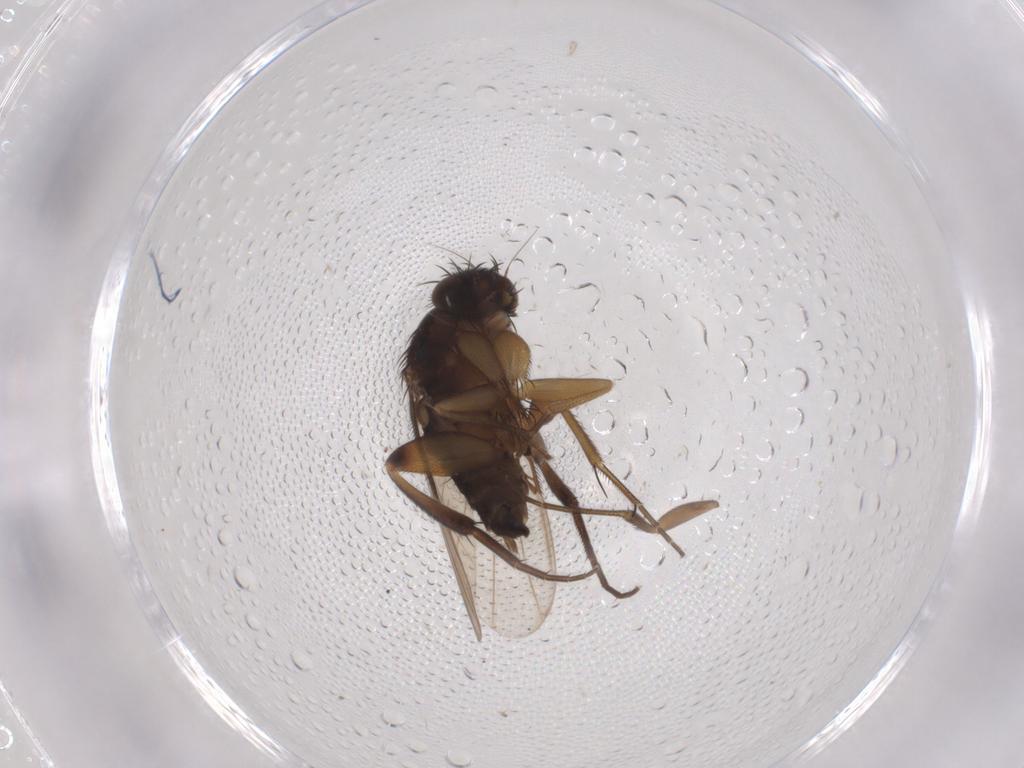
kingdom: Animalia
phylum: Arthropoda
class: Insecta
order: Diptera
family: Phoridae
